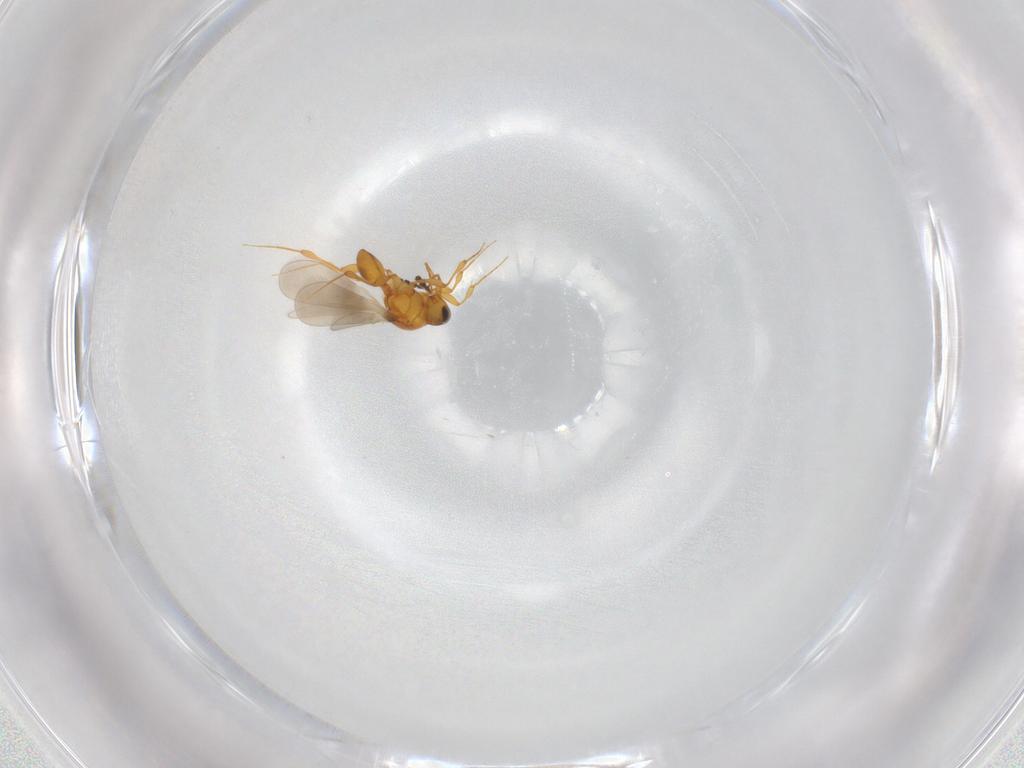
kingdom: Animalia
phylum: Arthropoda
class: Insecta
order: Hymenoptera
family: Platygastridae
